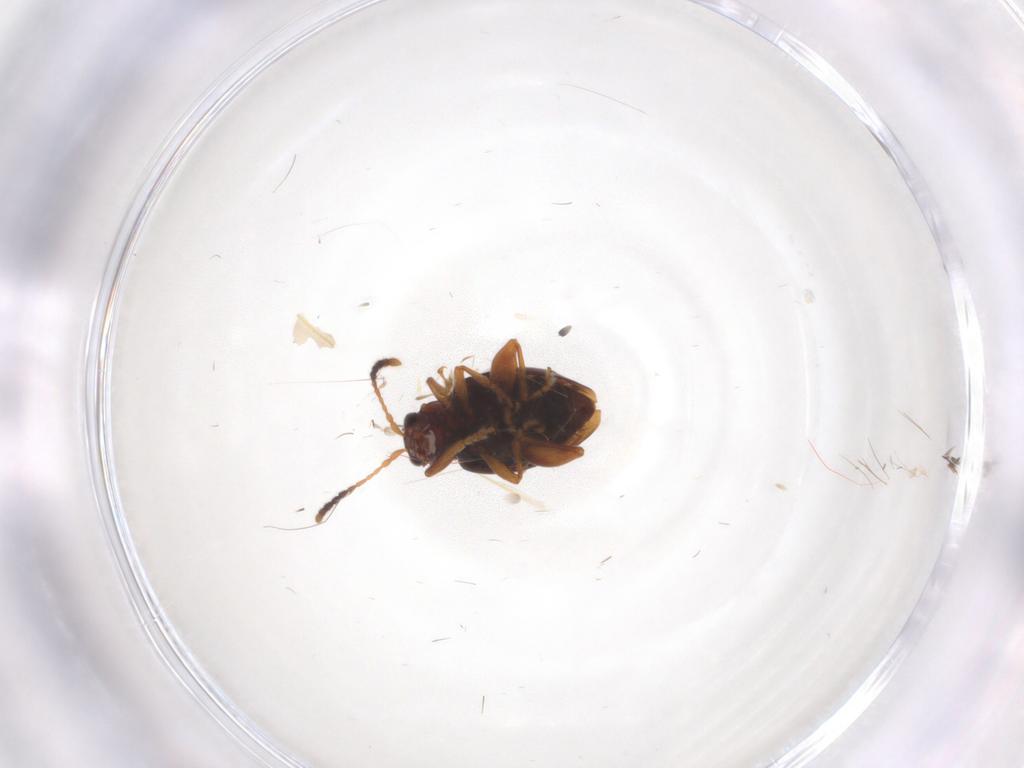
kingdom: Animalia
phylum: Arthropoda
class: Insecta
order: Coleoptera
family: Chrysomelidae
